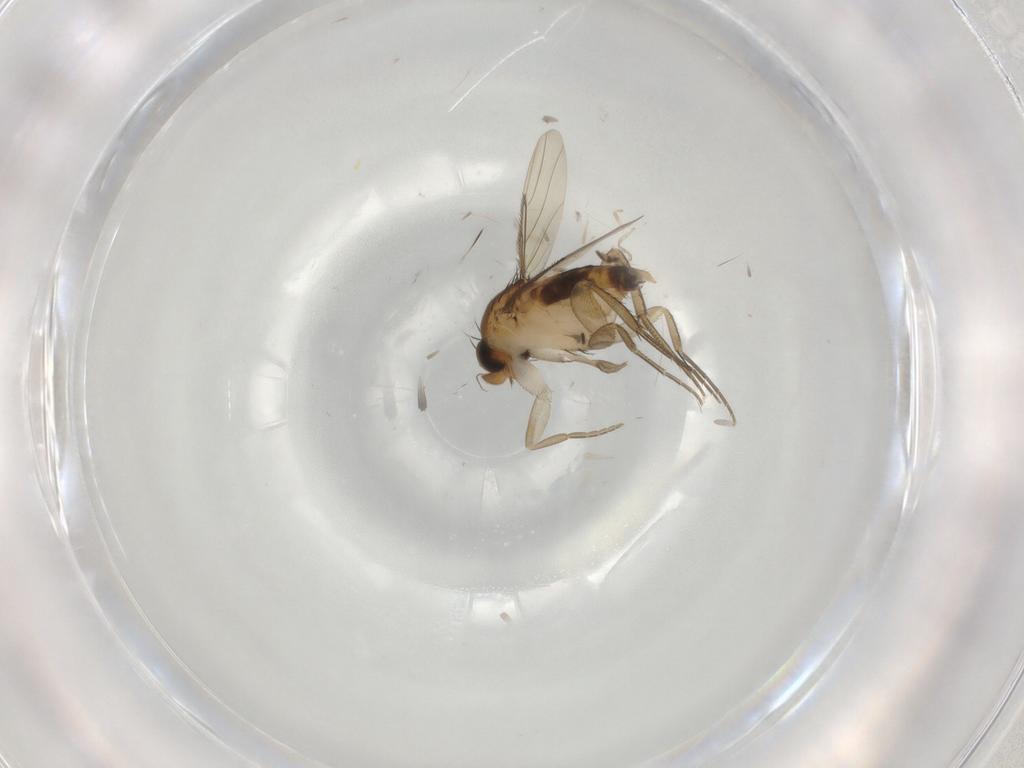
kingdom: Animalia
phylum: Arthropoda
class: Insecta
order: Diptera
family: Phoridae
